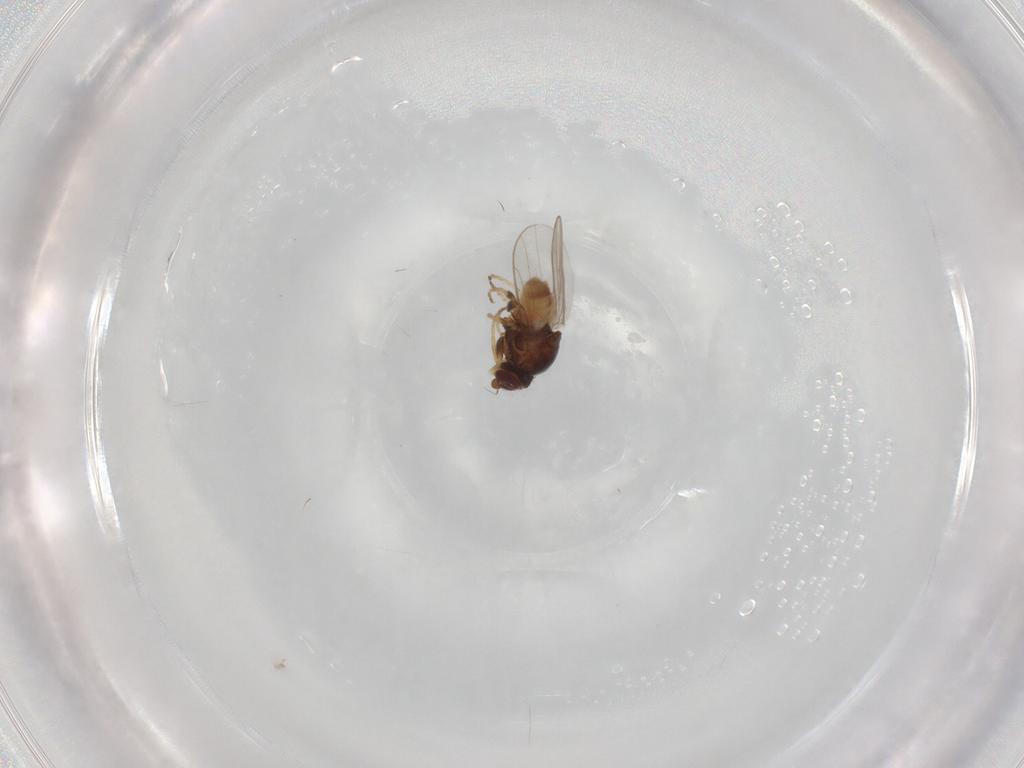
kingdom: Animalia
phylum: Arthropoda
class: Insecta
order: Diptera
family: Chloropidae
